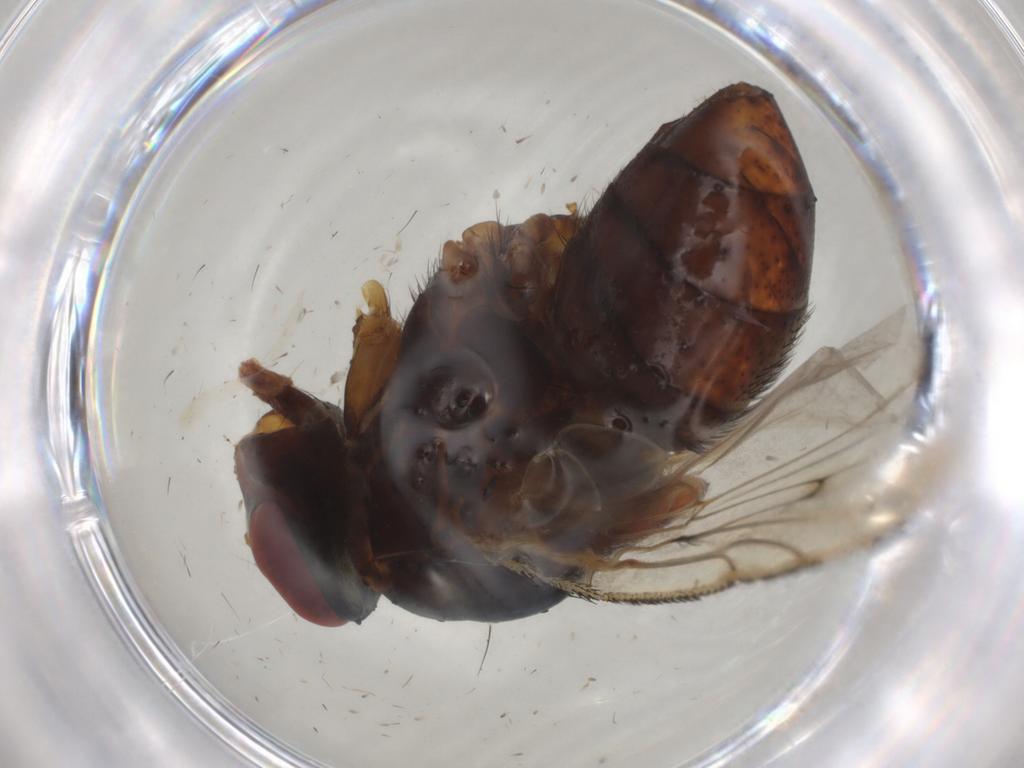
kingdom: Animalia
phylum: Arthropoda
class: Insecta
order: Diptera
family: Tachinidae
